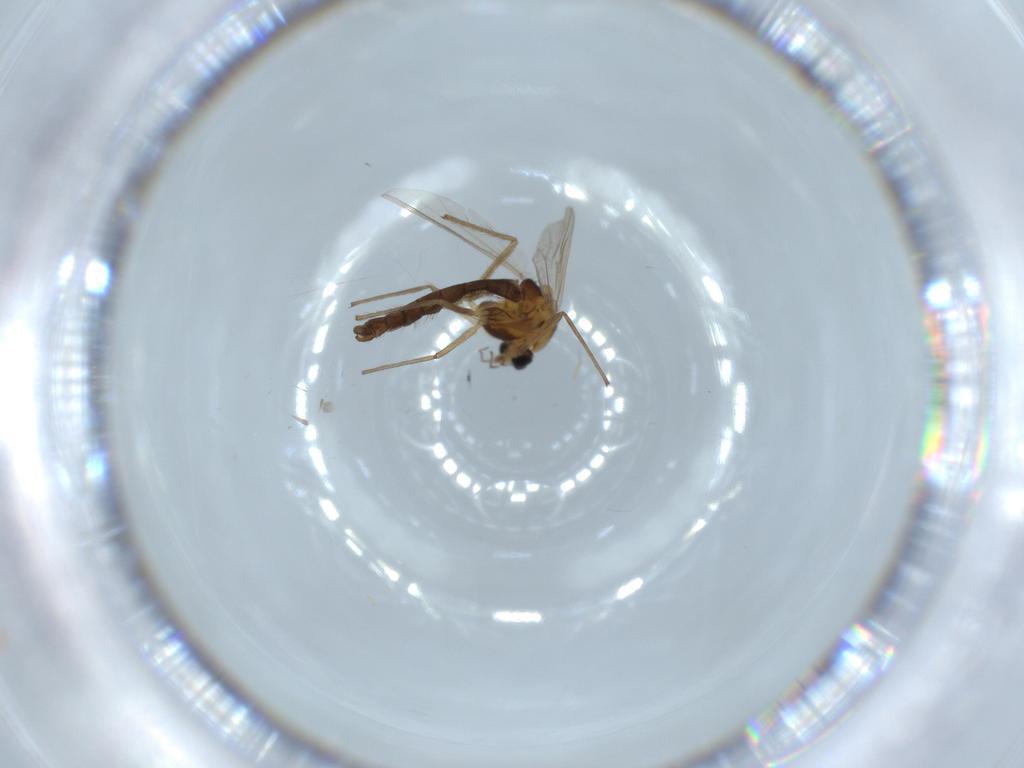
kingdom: Animalia
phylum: Arthropoda
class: Insecta
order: Diptera
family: Chironomidae
